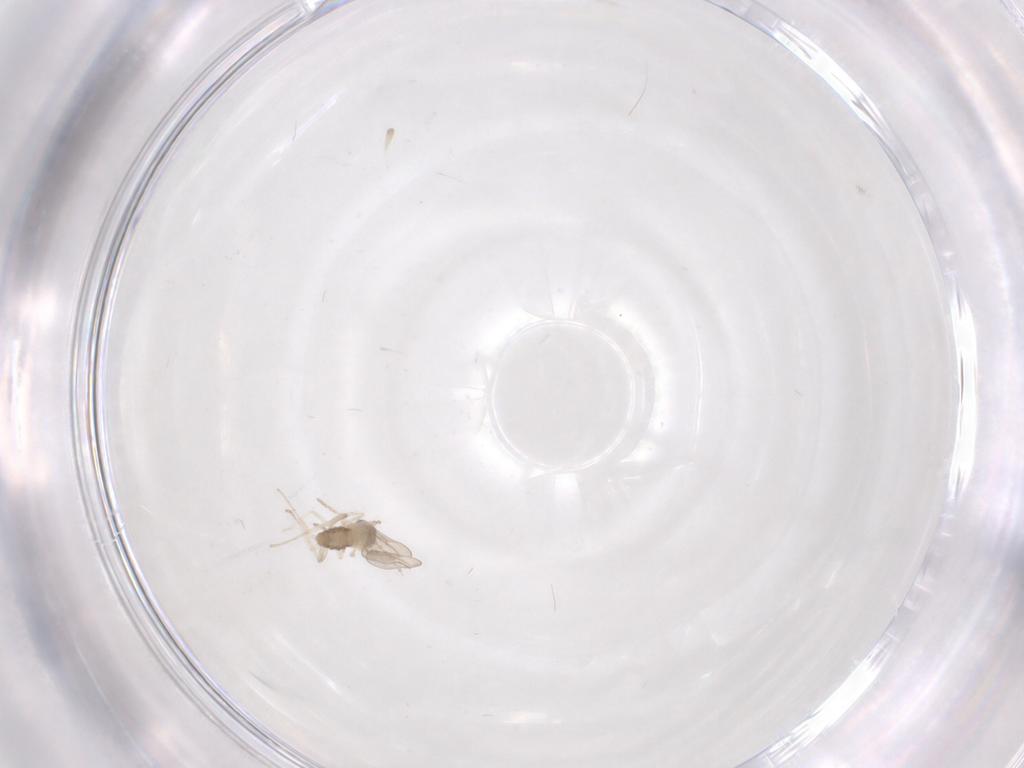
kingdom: Animalia
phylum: Arthropoda
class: Insecta
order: Diptera
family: Cecidomyiidae
